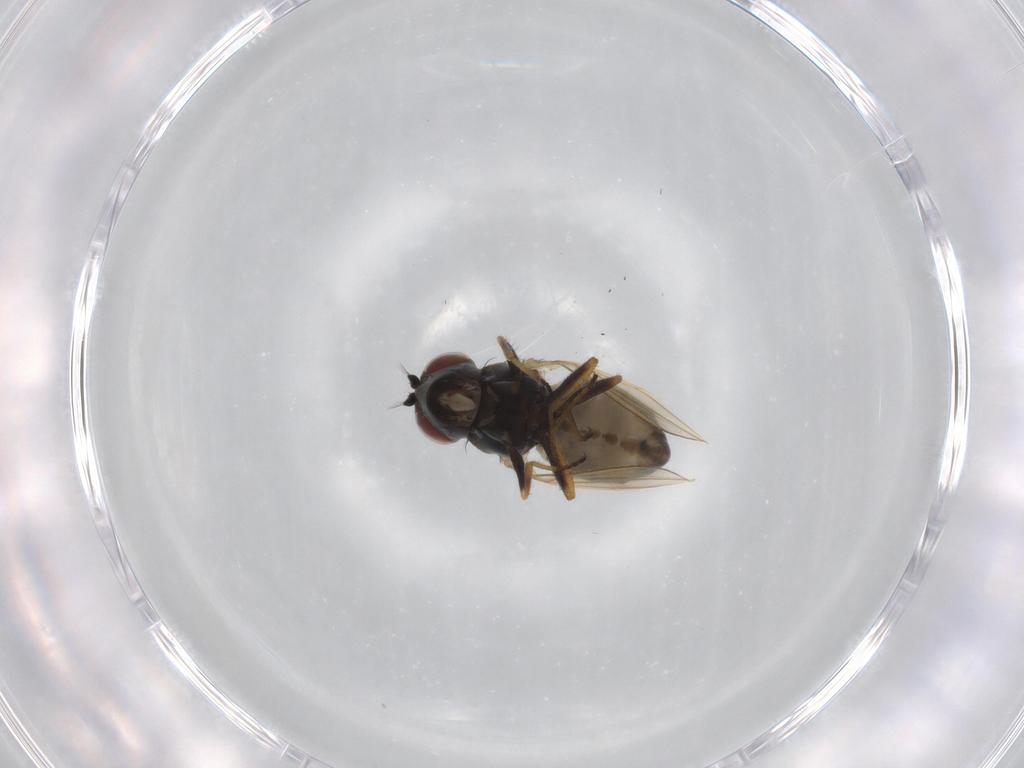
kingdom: Animalia
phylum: Arthropoda
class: Insecta
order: Diptera
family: Ephydridae
